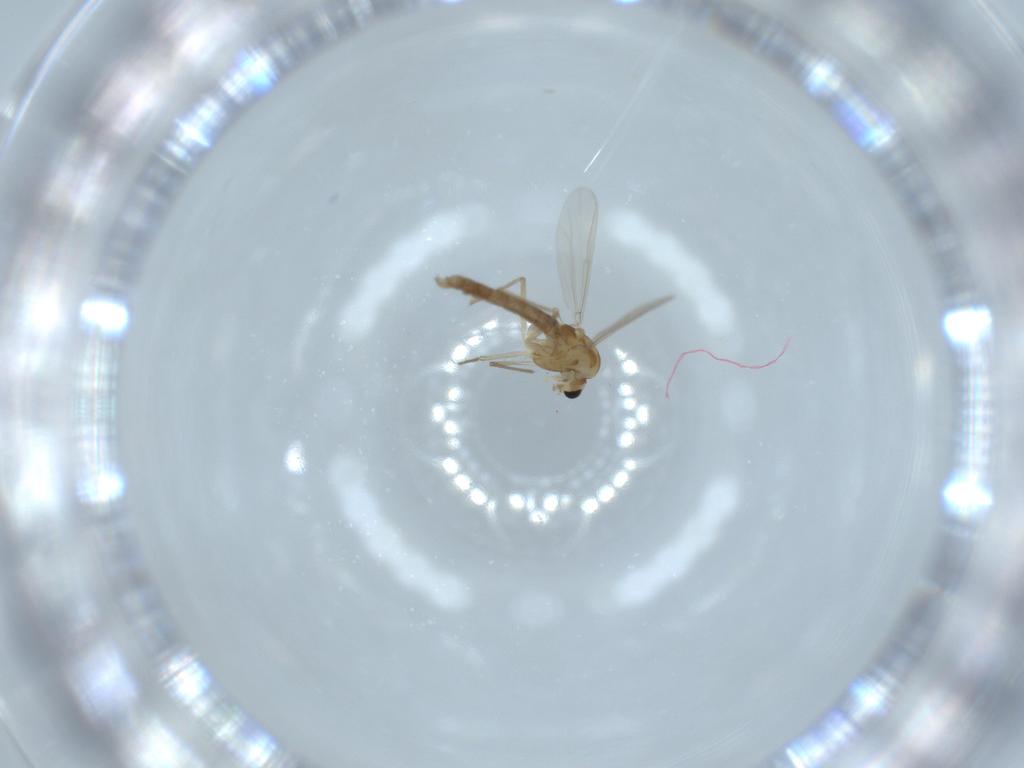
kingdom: Animalia
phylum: Arthropoda
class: Insecta
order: Diptera
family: Chironomidae
